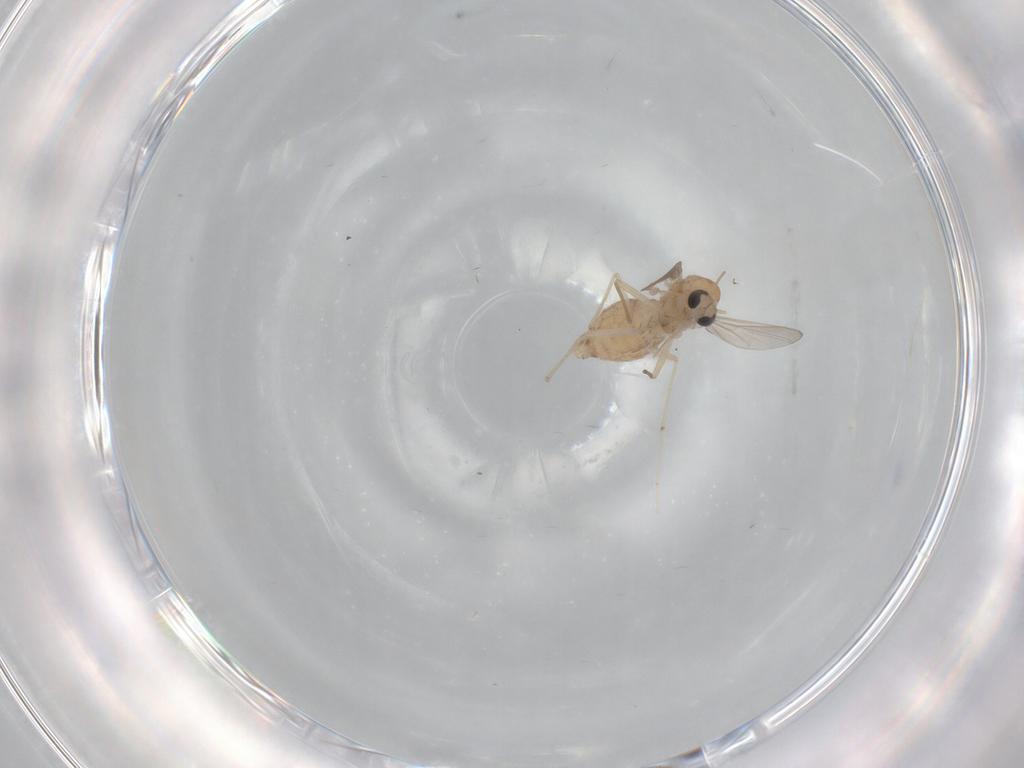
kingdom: Animalia
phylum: Arthropoda
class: Insecta
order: Diptera
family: Chironomidae
